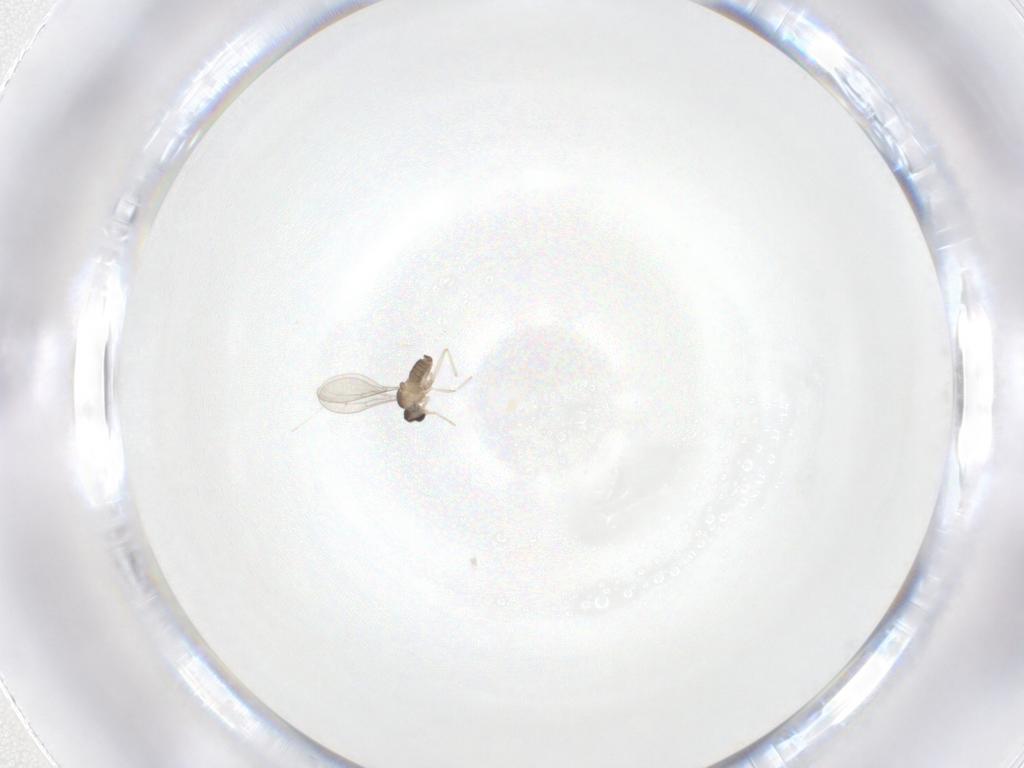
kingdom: Animalia
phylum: Arthropoda
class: Insecta
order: Diptera
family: Cecidomyiidae
